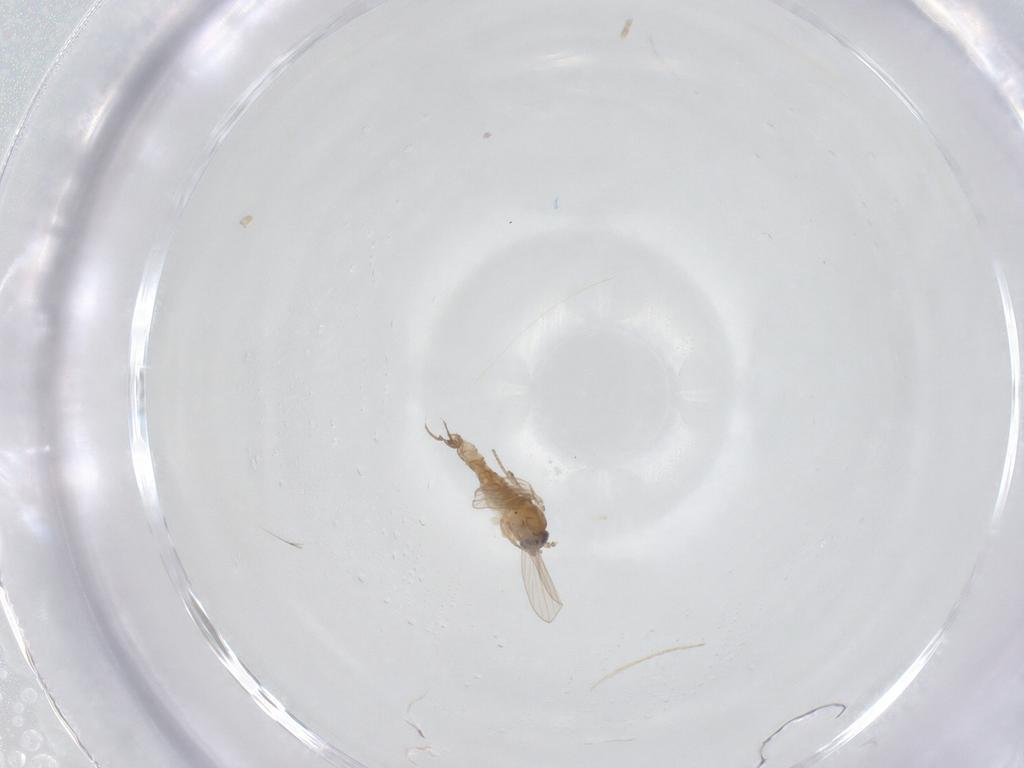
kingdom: Animalia
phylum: Arthropoda
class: Insecta
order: Diptera
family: Psychodidae
